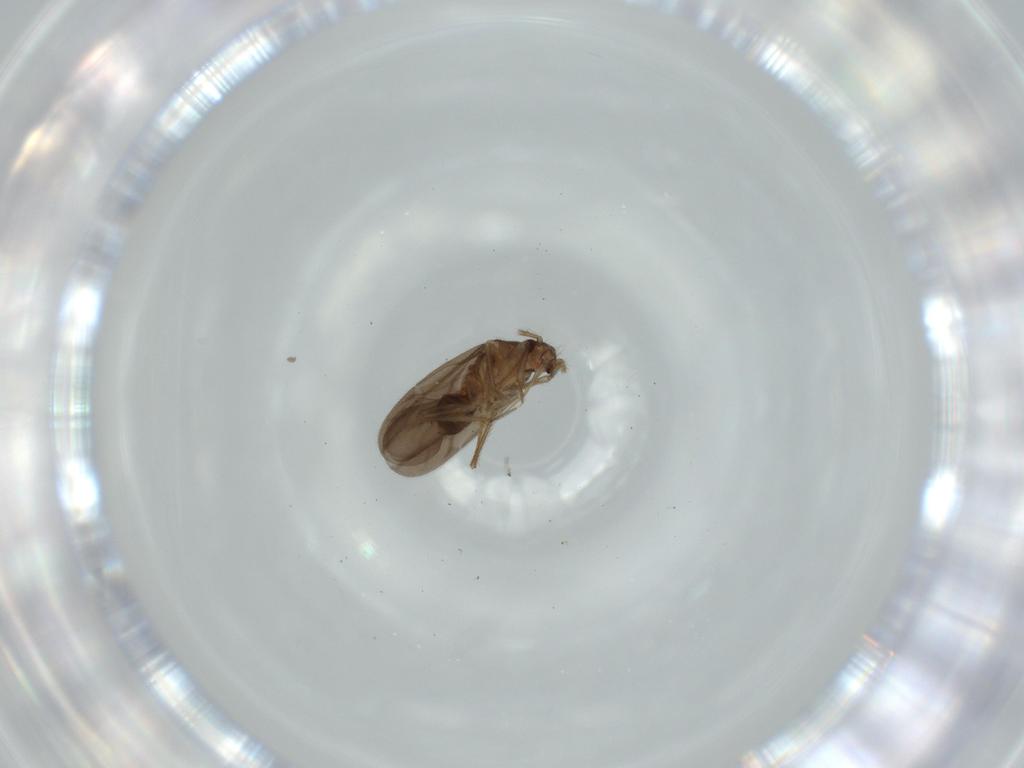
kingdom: Animalia
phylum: Arthropoda
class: Insecta
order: Hemiptera
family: Ceratocombidae
